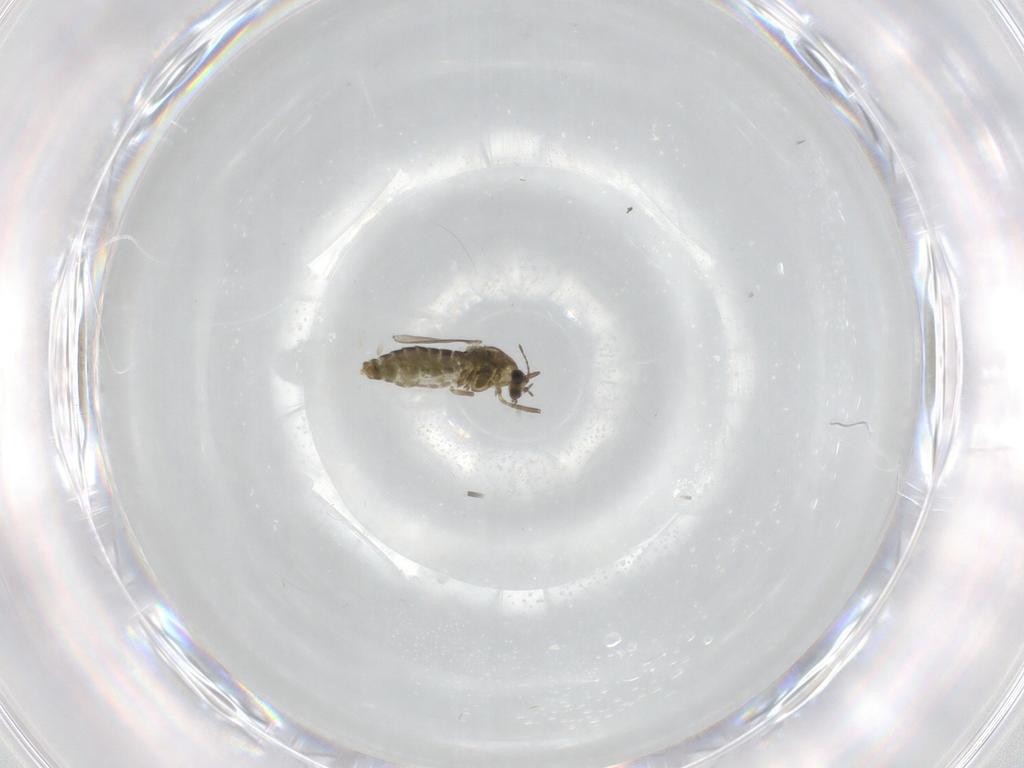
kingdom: Animalia
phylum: Arthropoda
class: Insecta
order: Diptera
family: Chironomidae
